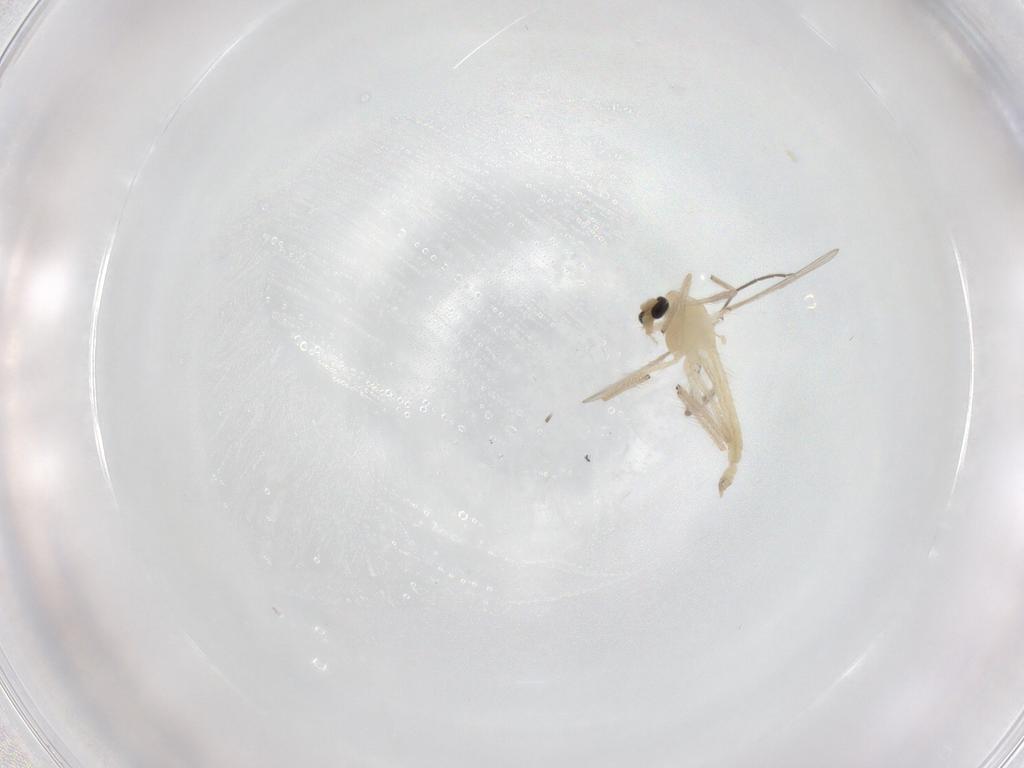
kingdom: Animalia
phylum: Arthropoda
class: Insecta
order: Diptera
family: Chironomidae
